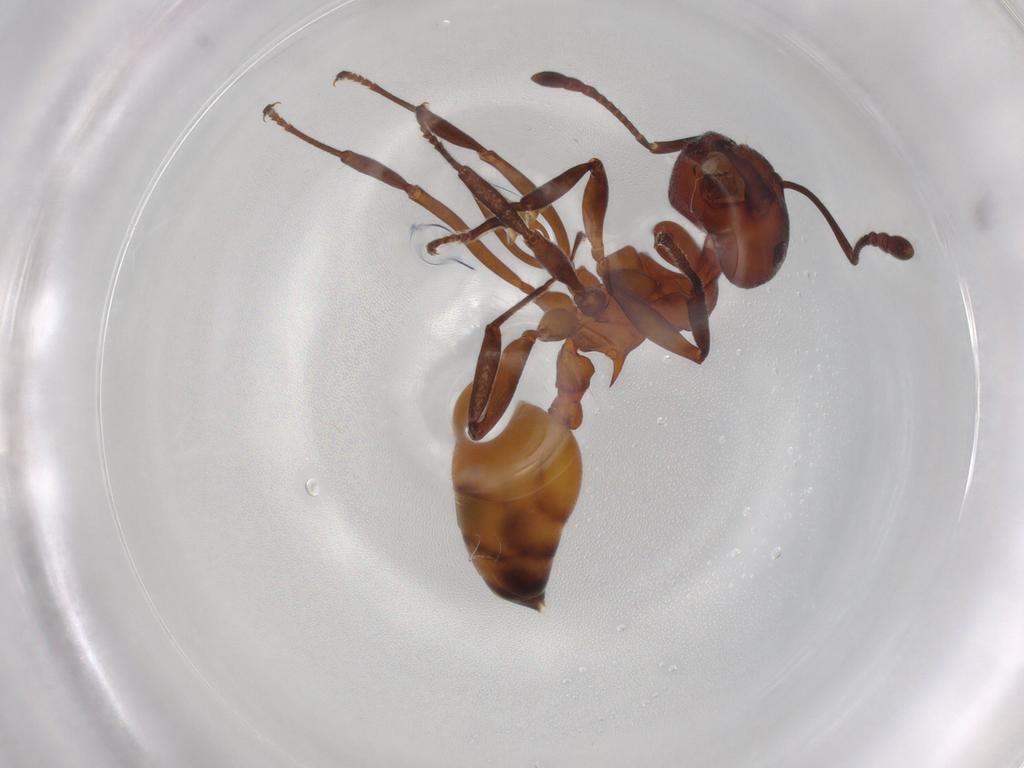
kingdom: Animalia
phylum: Arthropoda
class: Insecta
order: Hymenoptera
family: Formicidae
